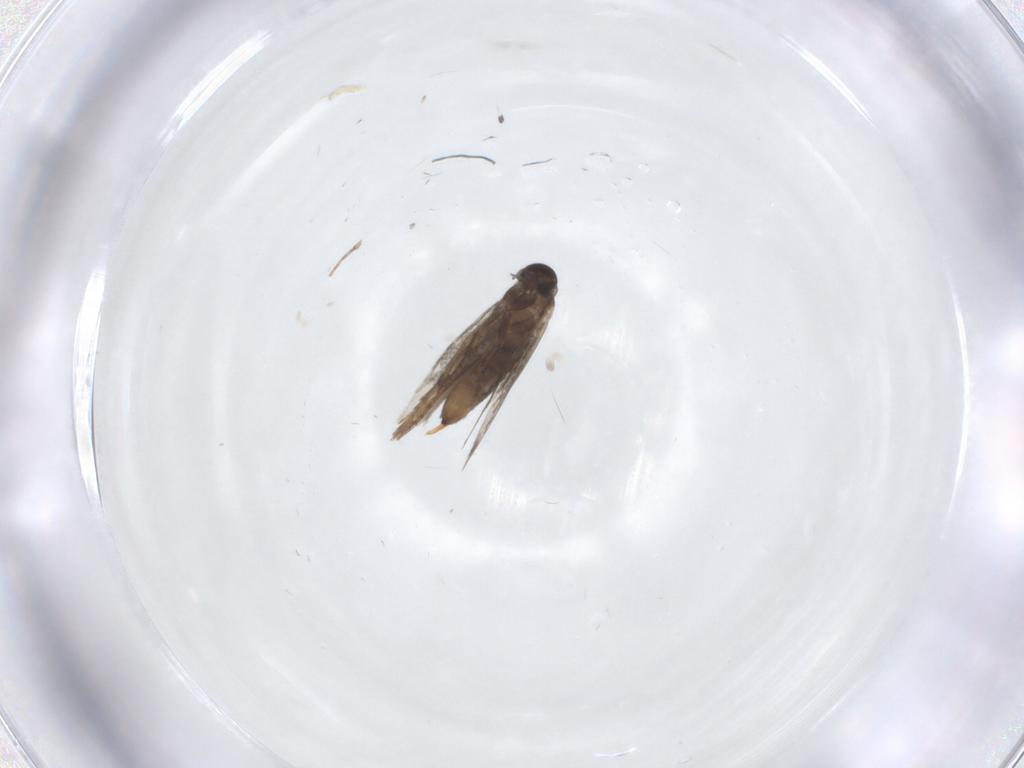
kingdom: Animalia
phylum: Arthropoda
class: Insecta
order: Lepidoptera
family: Heliozelidae
